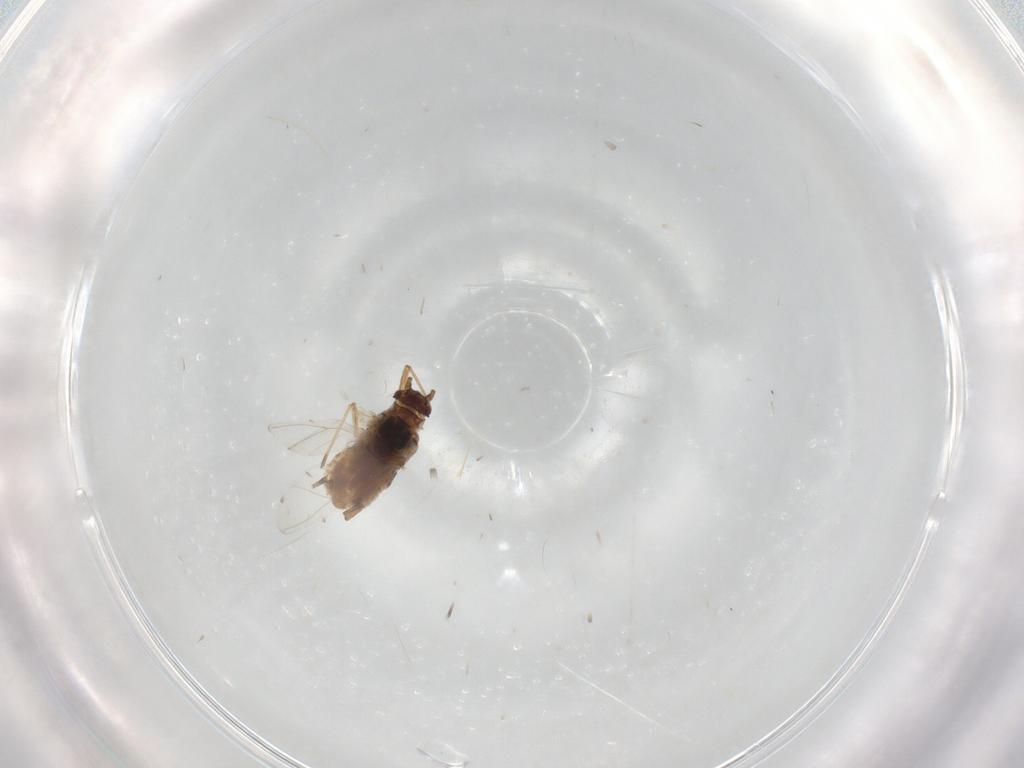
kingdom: Animalia
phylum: Arthropoda
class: Insecta
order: Hemiptera
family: Aphididae
